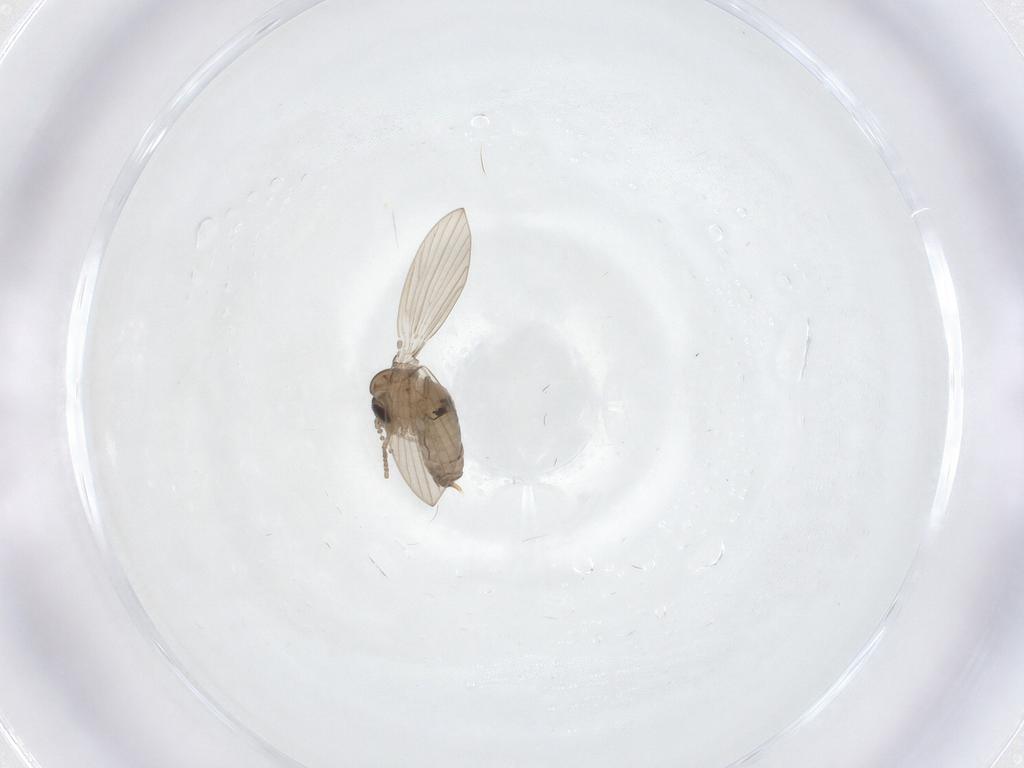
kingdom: Animalia
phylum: Arthropoda
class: Insecta
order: Diptera
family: Psychodidae
